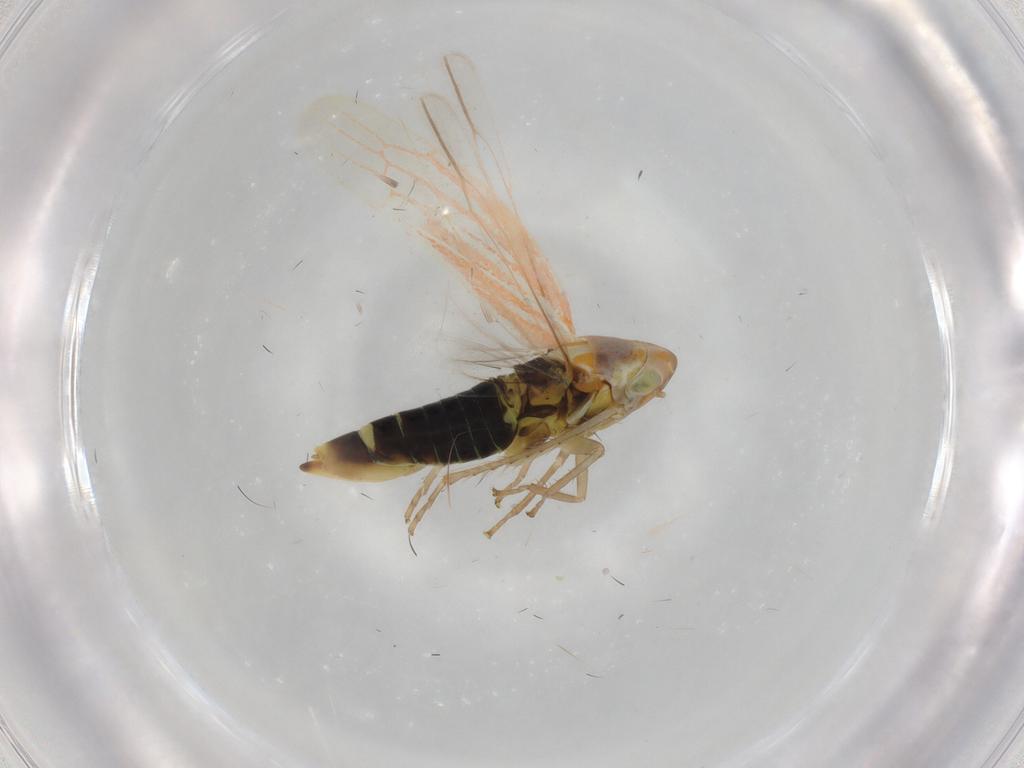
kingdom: Animalia
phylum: Arthropoda
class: Insecta
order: Hemiptera
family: Cicadellidae
